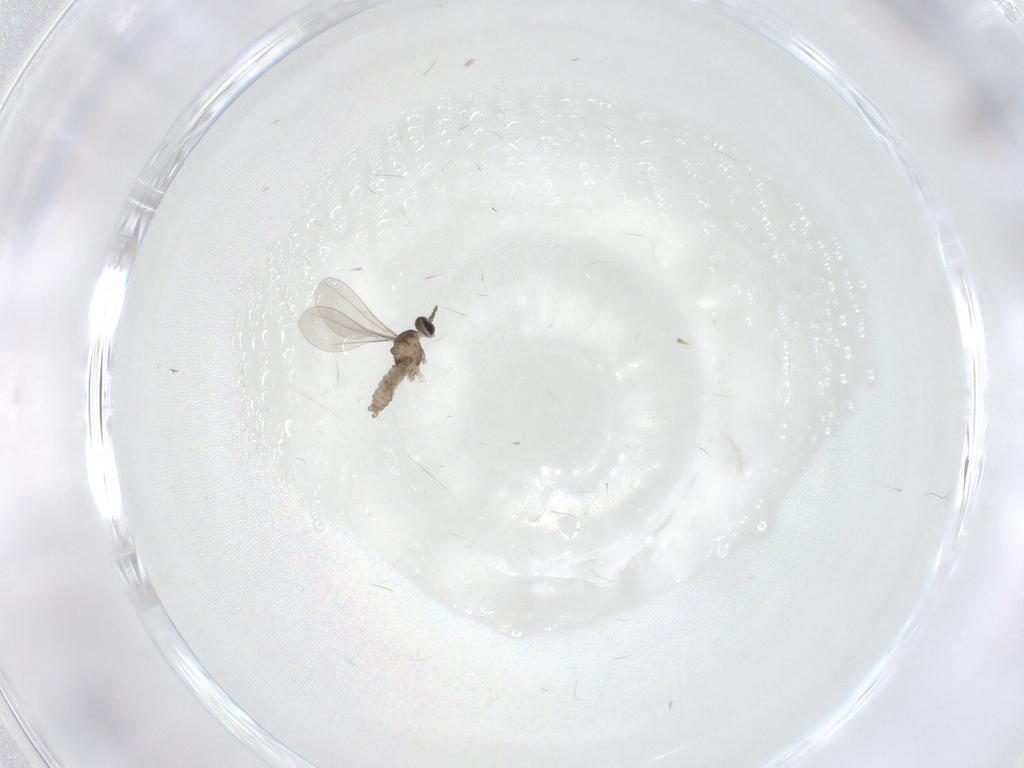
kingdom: Animalia
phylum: Arthropoda
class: Insecta
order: Diptera
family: Chironomidae
